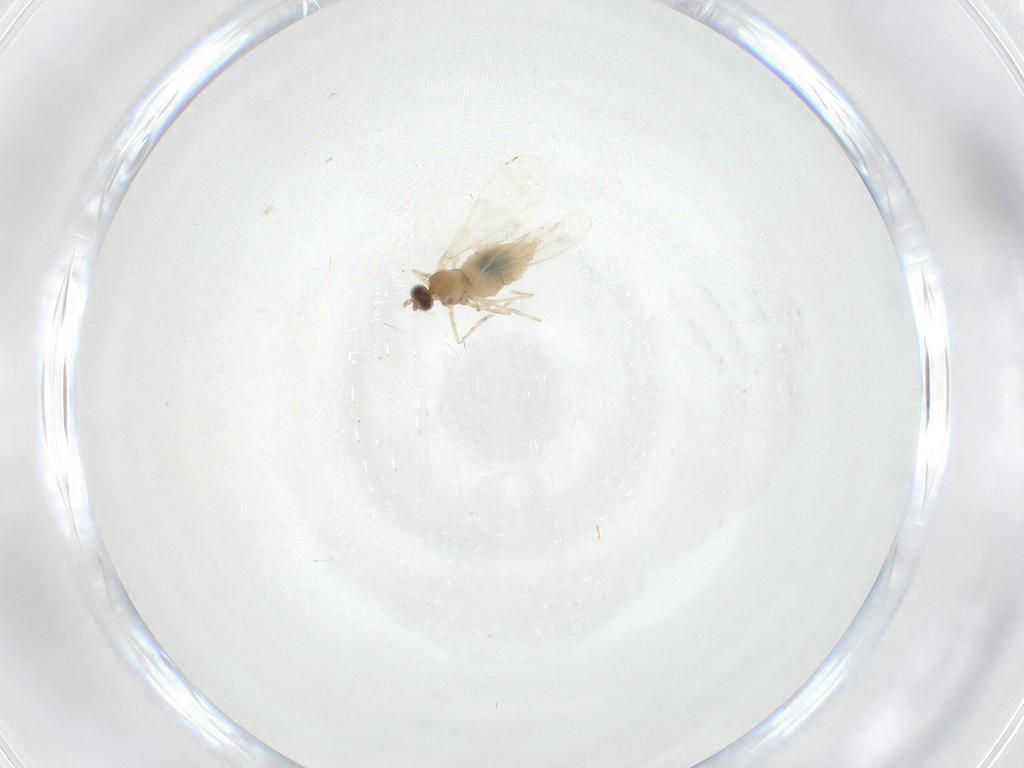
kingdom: Animalia
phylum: Arthropoda
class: Insecta
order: Diptera
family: Cecidomyiidae
